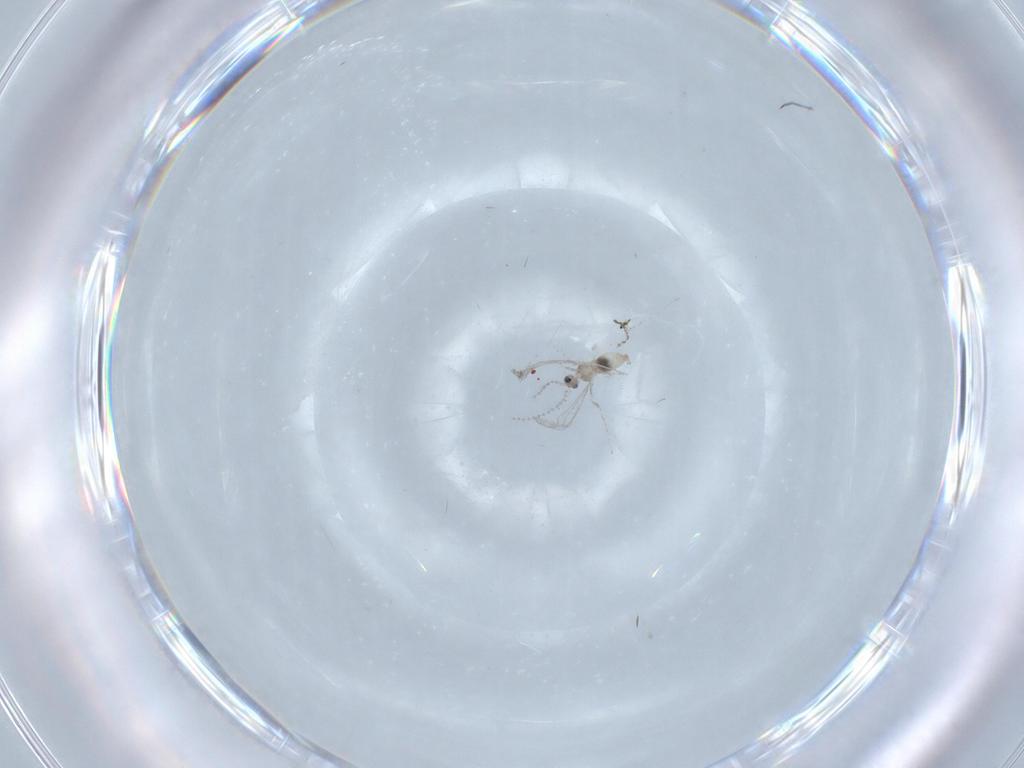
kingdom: Animalia
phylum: Arthropoda
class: Insecta
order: Diptera
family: Cecidomyiidae
